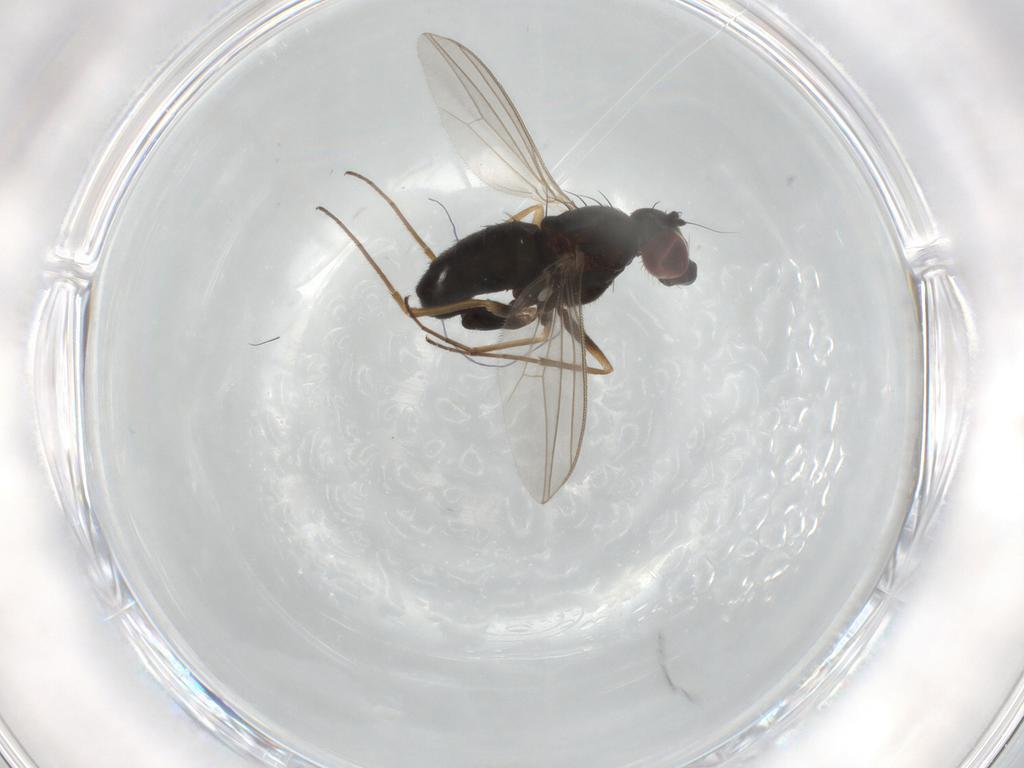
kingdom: Animalia
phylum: Arthropoda
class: Insecta
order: Diptera
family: Dolichopodidae
